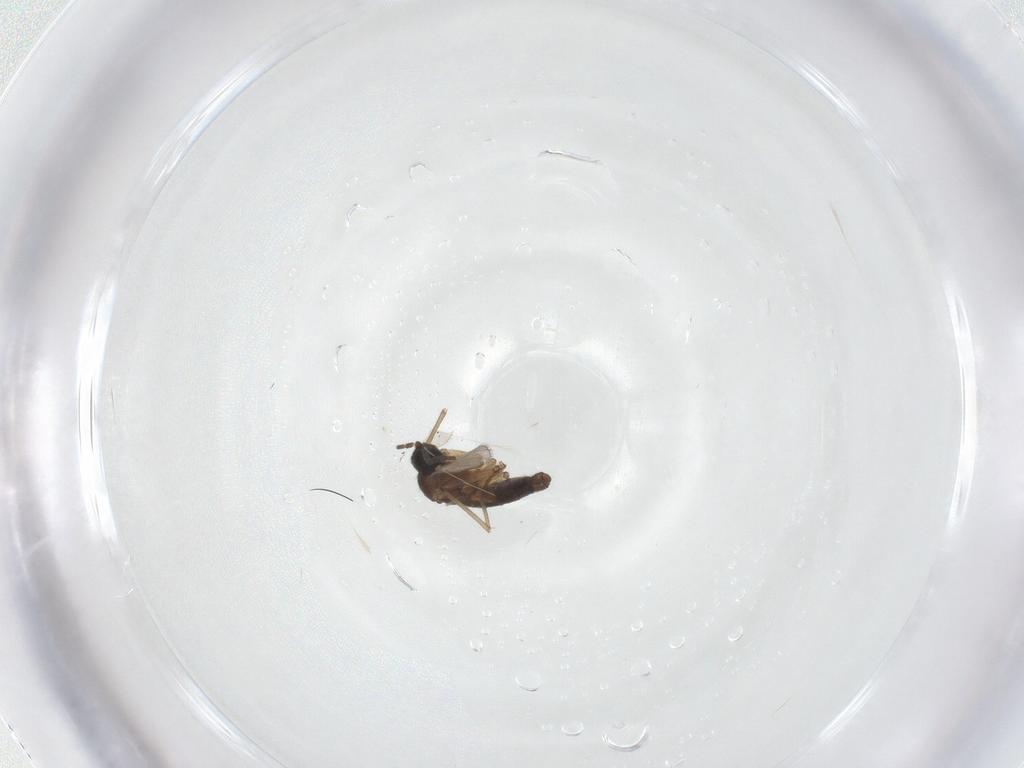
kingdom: Animalia
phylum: Arthropoda
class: Insecta
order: Diptera
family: Sciaridae
